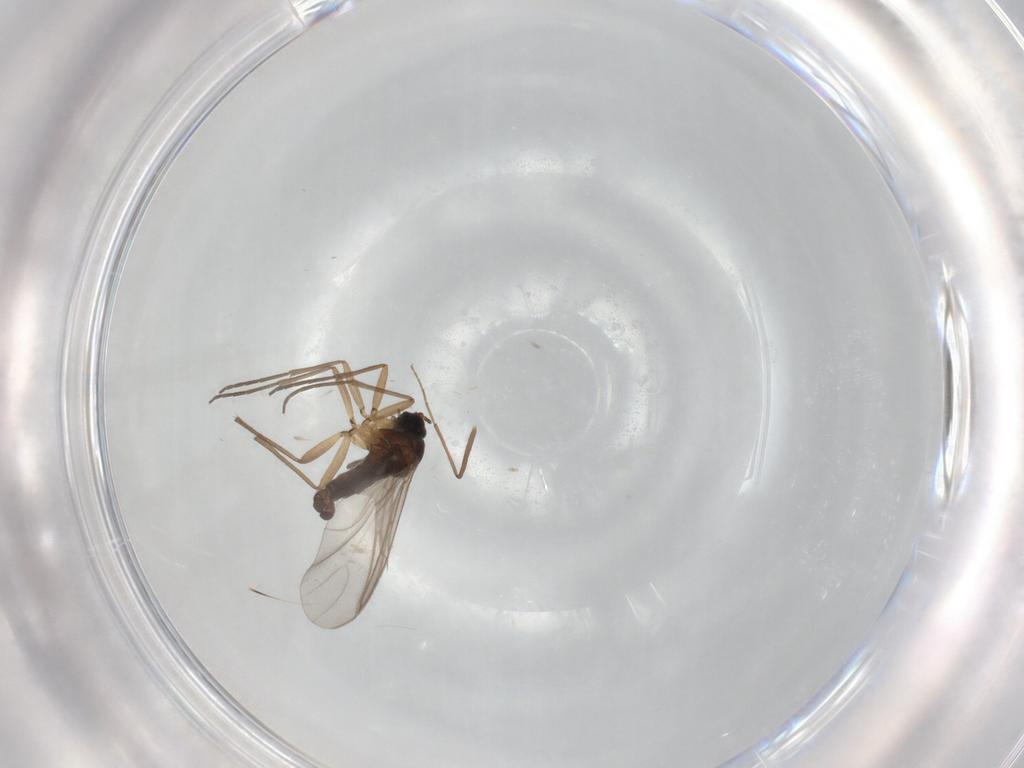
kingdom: Animalia
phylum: Arthropoda
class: Insecta
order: Diptera
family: Sciaridae
